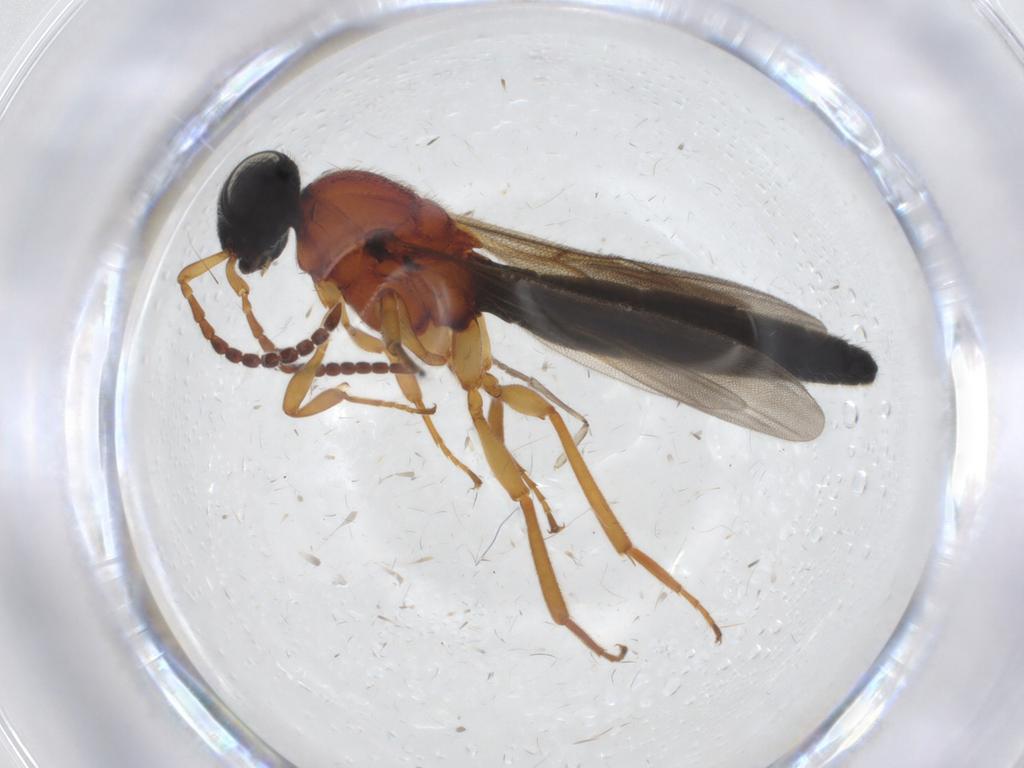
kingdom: Animalia
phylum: Arthropoda
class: Insecta
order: Hymenoptera
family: Scelionidae
